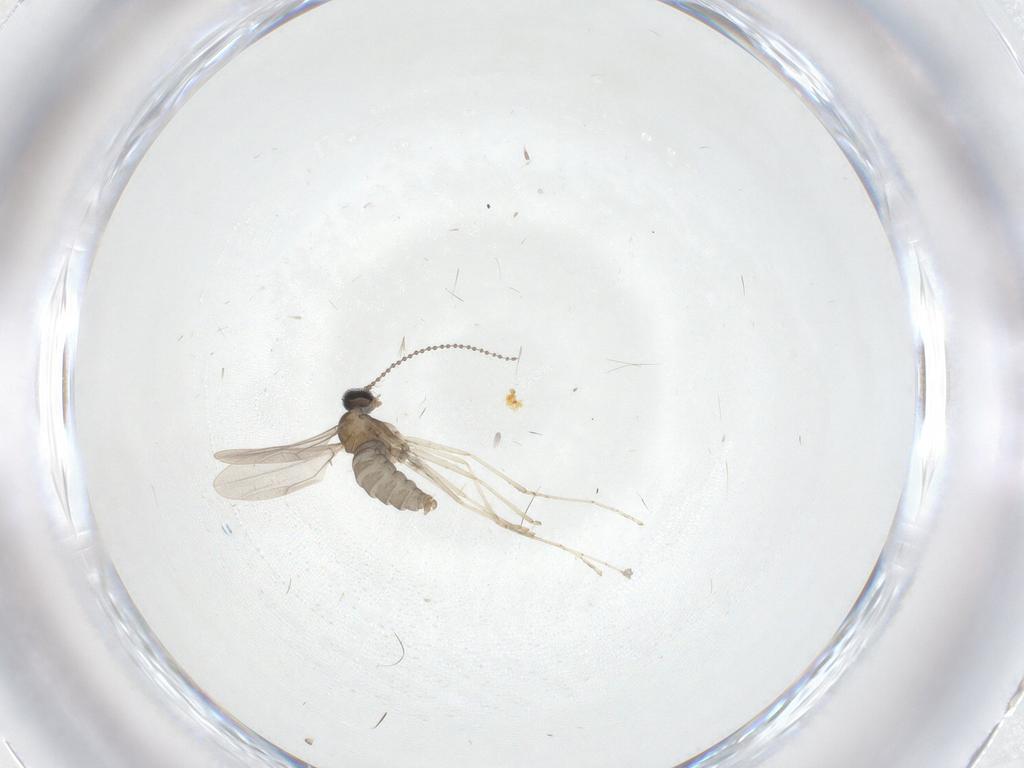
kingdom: Animalia
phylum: Arthropoda
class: Insecta
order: Diptera
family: Cecidomyiidae
